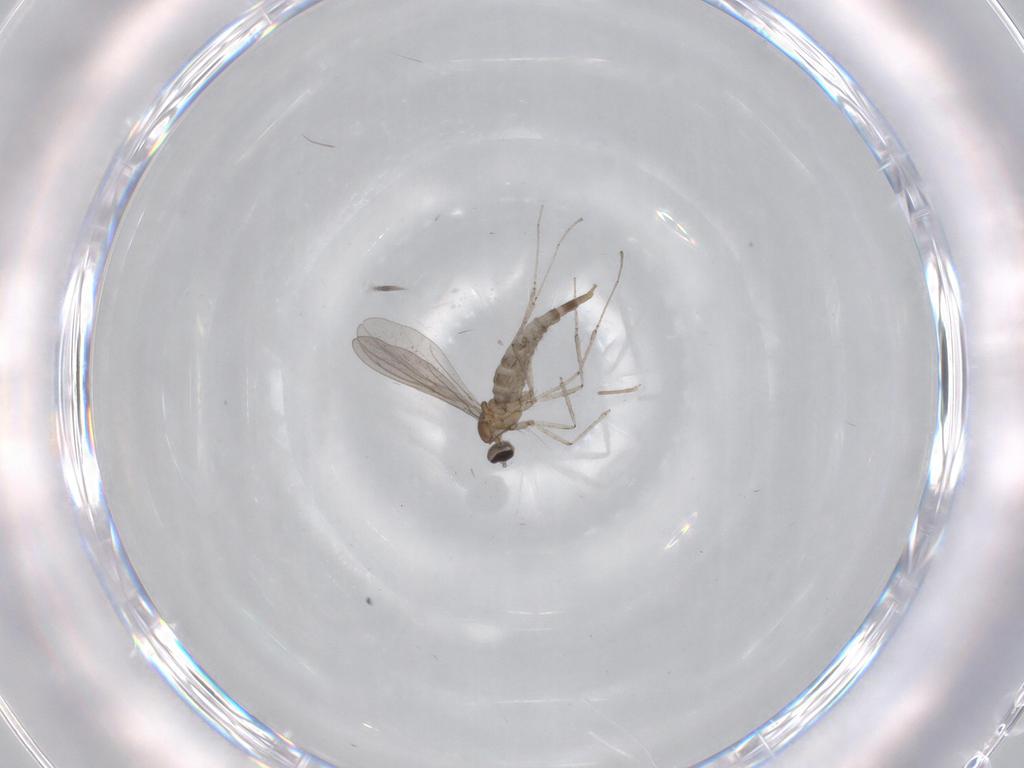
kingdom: Animalia
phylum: Arthropoda
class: Insecta
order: Diptera
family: Cecidomyiidae
